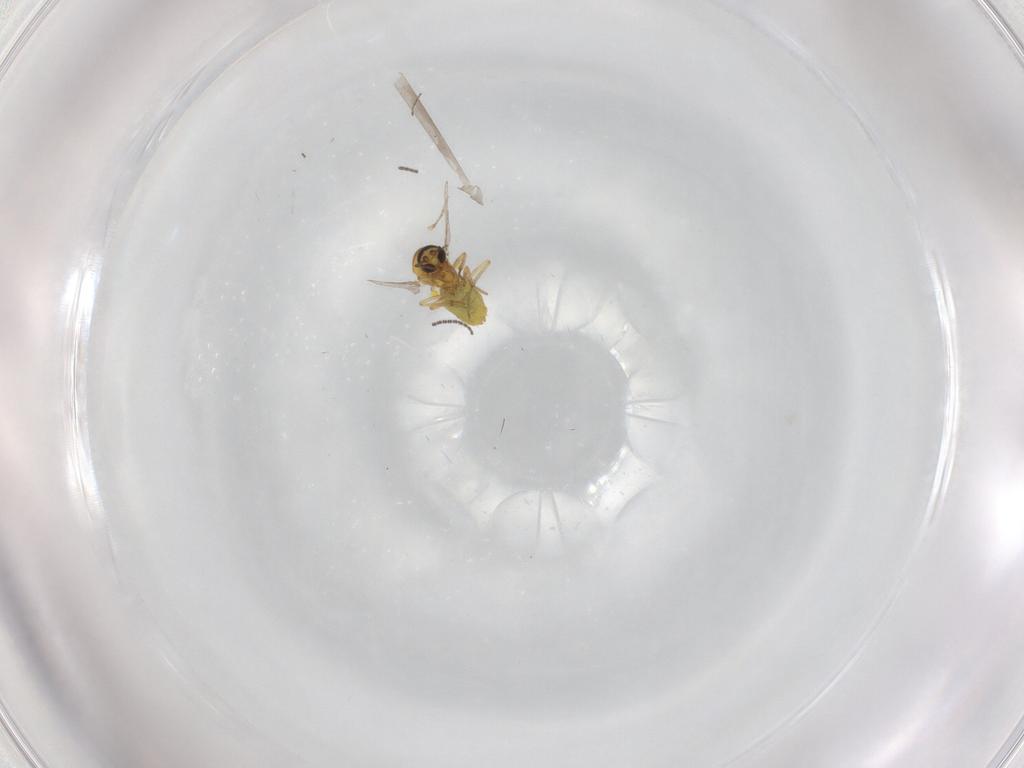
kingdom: Animalia
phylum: Arthropoda
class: Insecta
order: Diptera
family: Ceratopogonidae
